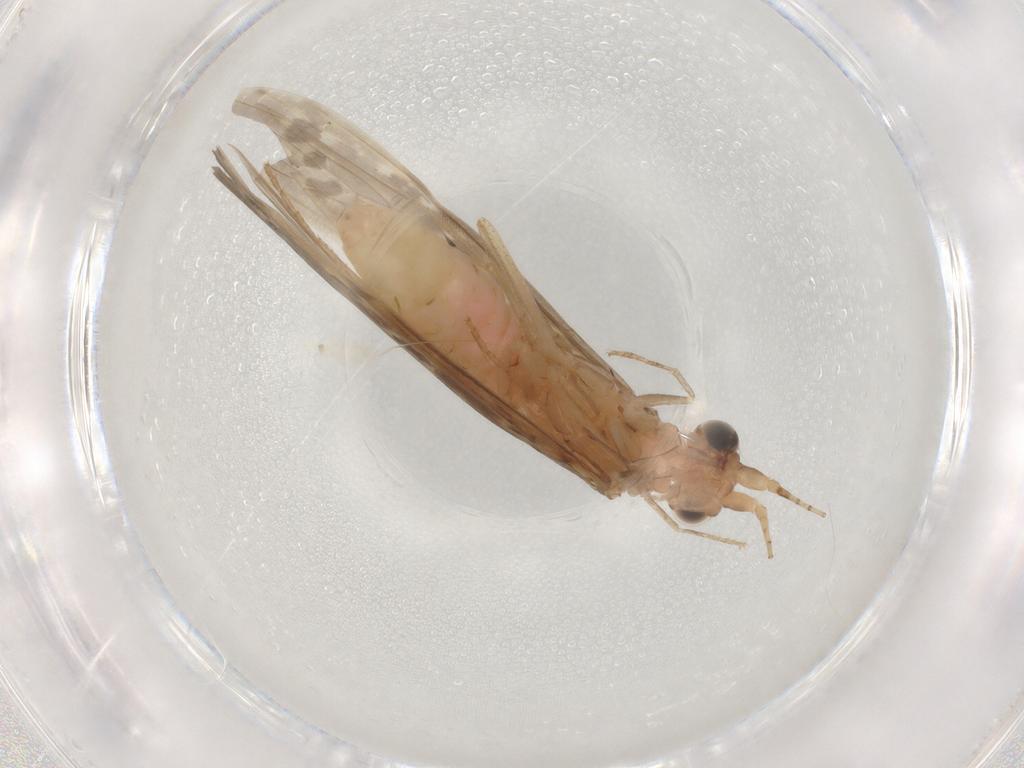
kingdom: Animalia
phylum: Arthropoda
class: Insecta
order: Trichoptera
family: Leptoceridae
